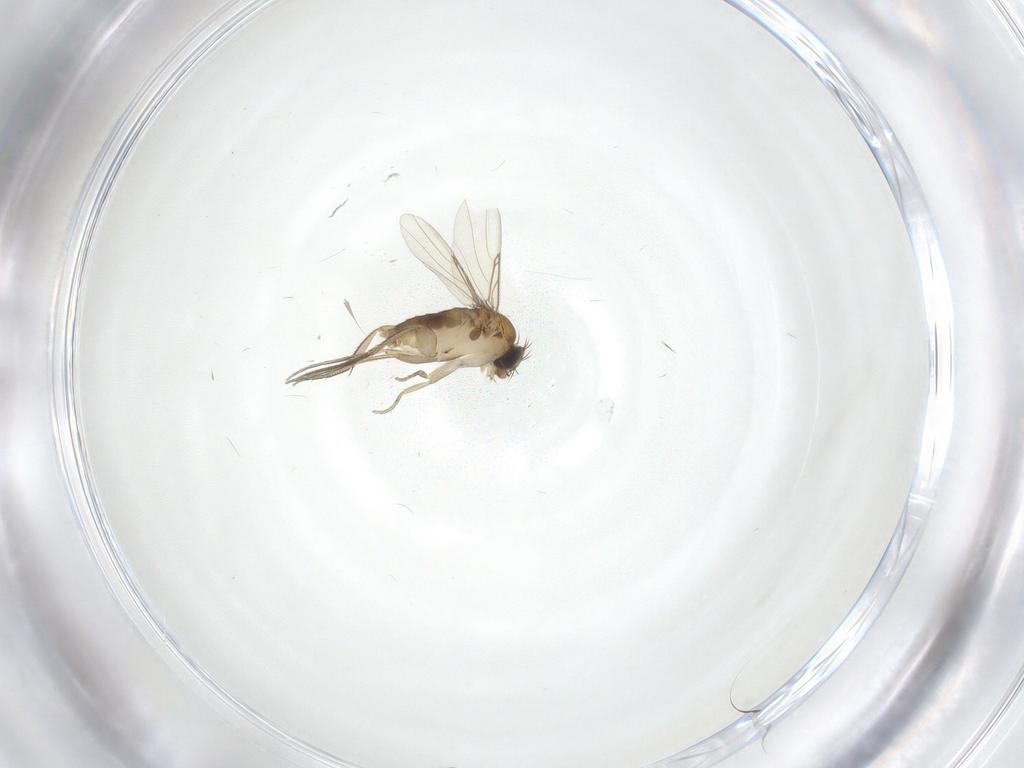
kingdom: Animalia
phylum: Arthropoda
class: Insecta
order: Diptera
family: Phoridae
